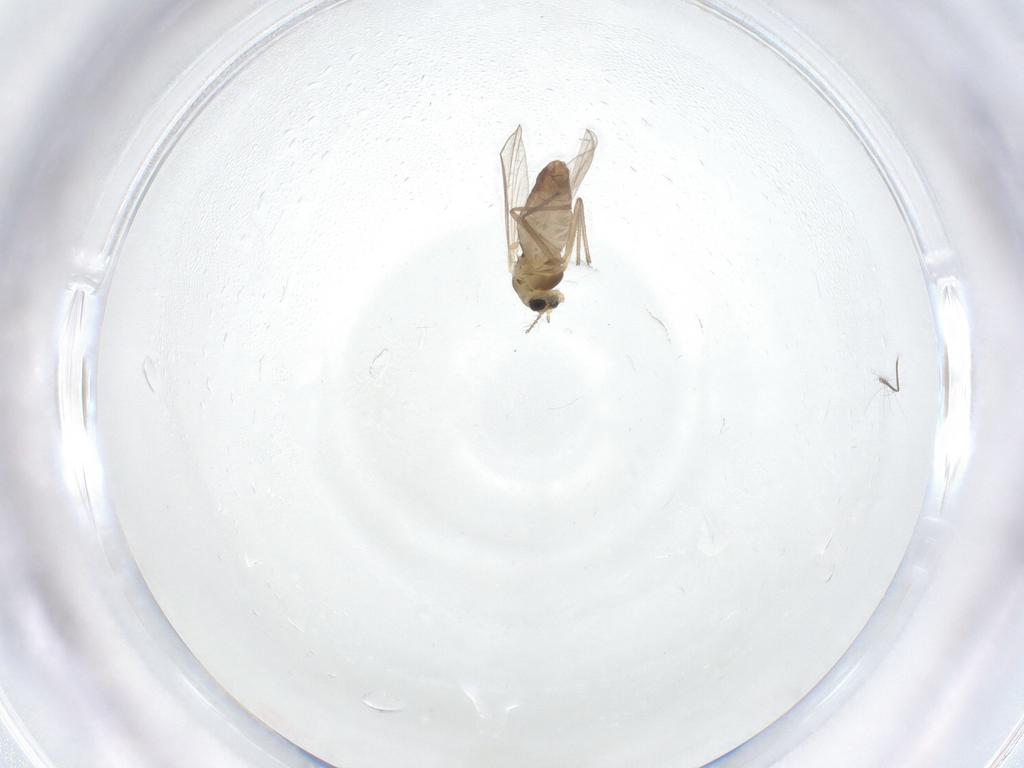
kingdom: Animalia
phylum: Arthropoda
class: Insecta
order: Diptera
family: Chironomidae
